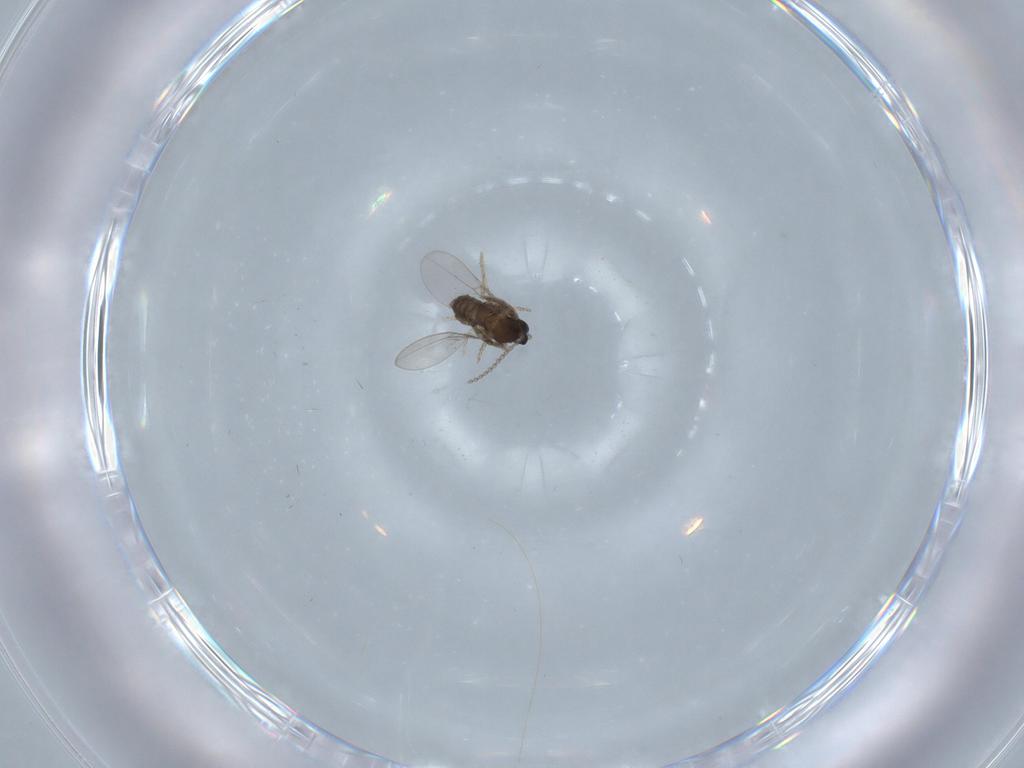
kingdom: Animalia
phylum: Arthropoda
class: Insecta
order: Diptera
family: Cecidomyiidae
